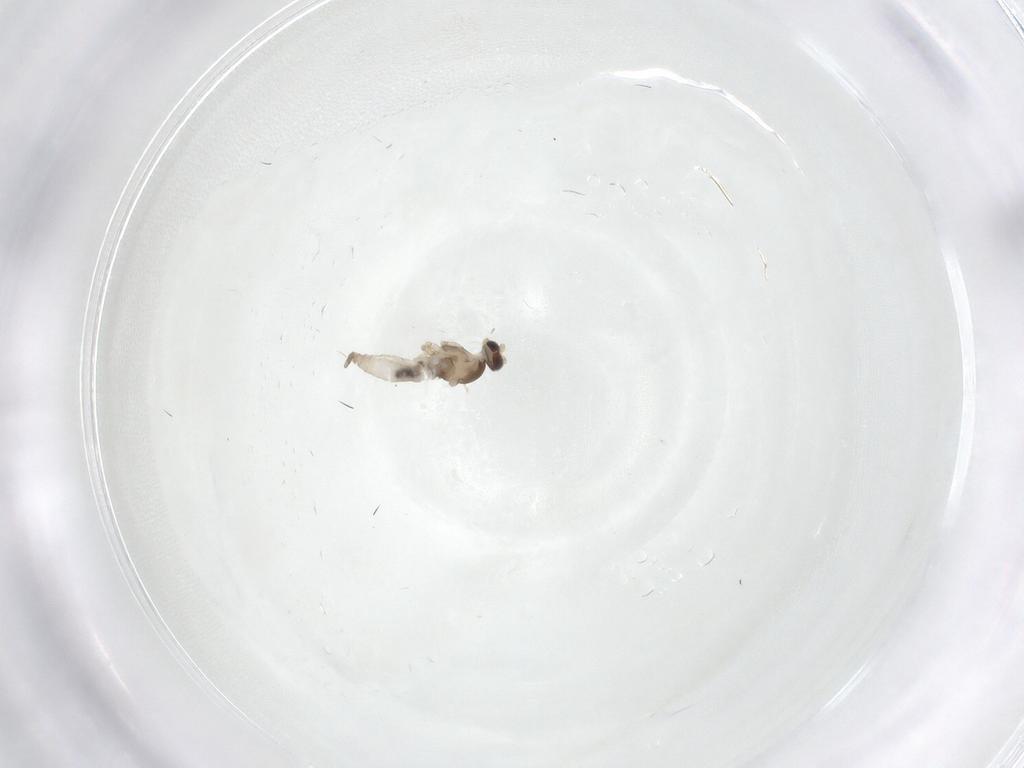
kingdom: Animalia
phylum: Arthropoda
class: Insecta
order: Diptera
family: Cecidomyiidae
